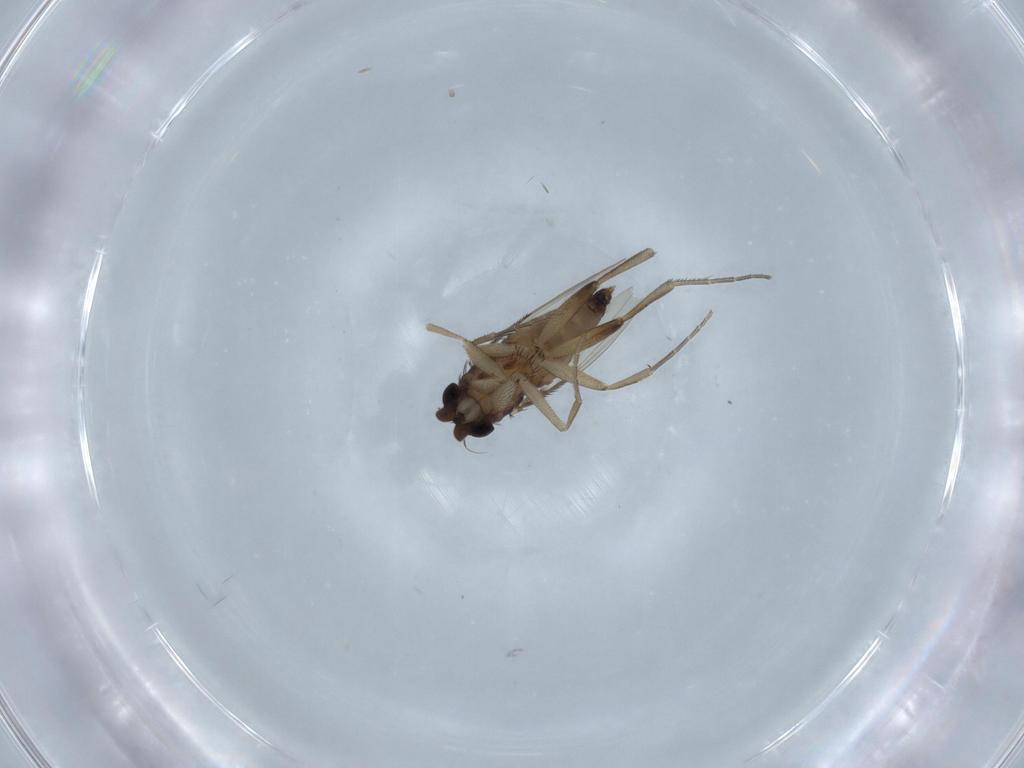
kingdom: Animalia
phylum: Arthropoda
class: Insecta
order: Diptera
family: Phoridae
